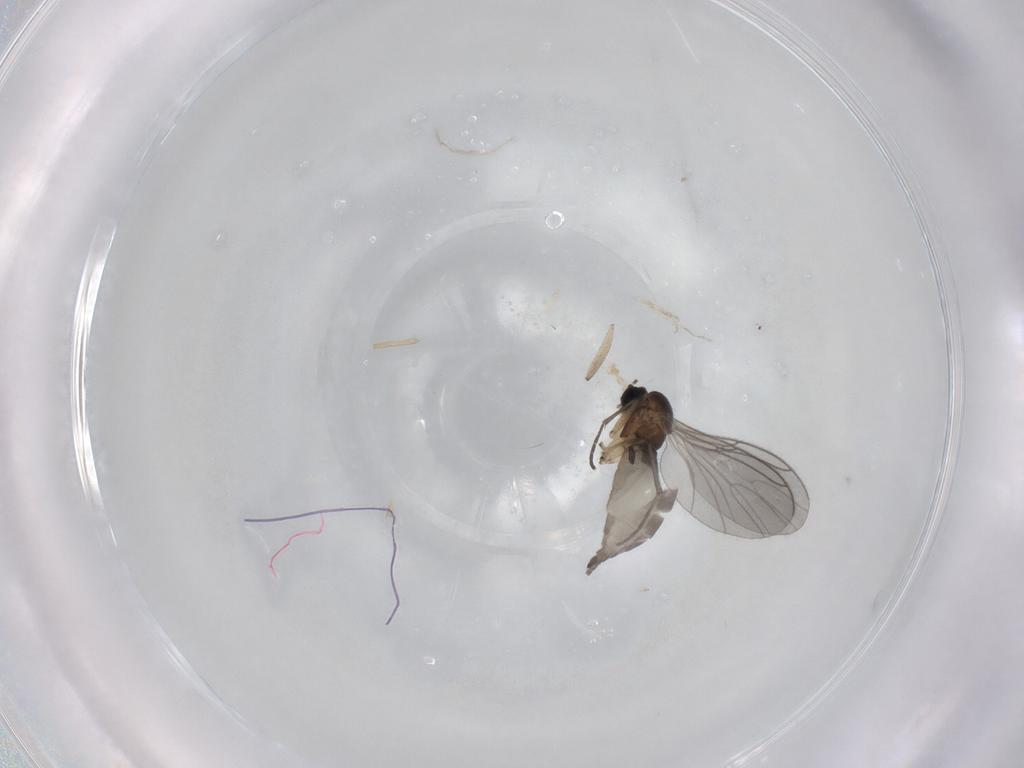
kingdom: Animalia
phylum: Arthropoda
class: Insecta
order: Diptera
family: Sciaridae
